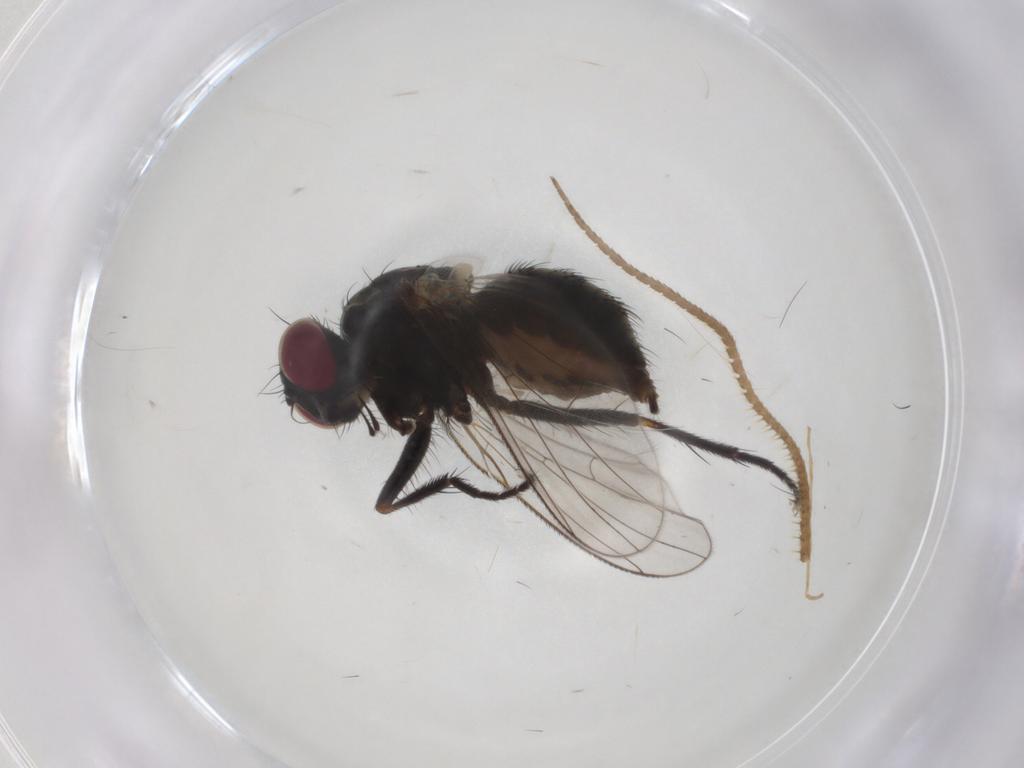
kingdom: Animalia
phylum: Arthropoda
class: Insecta
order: Diptera
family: Muscidae
